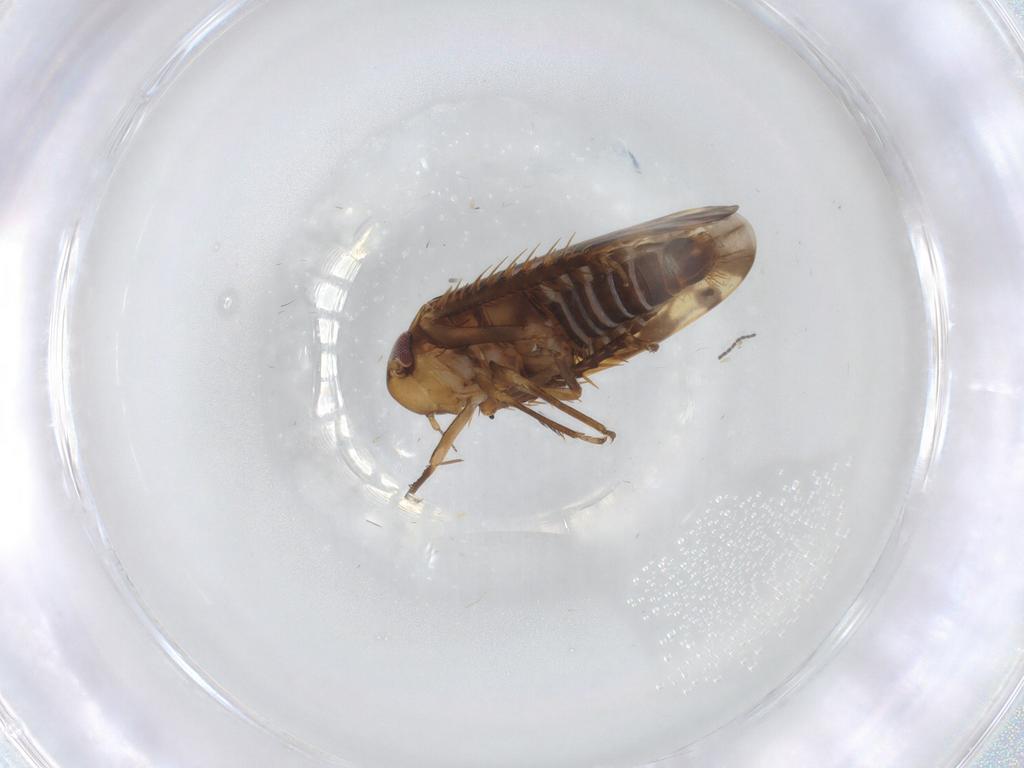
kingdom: Animalia
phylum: Arthropoda
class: Insecta
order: Hemiptera
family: Cicadellidae
